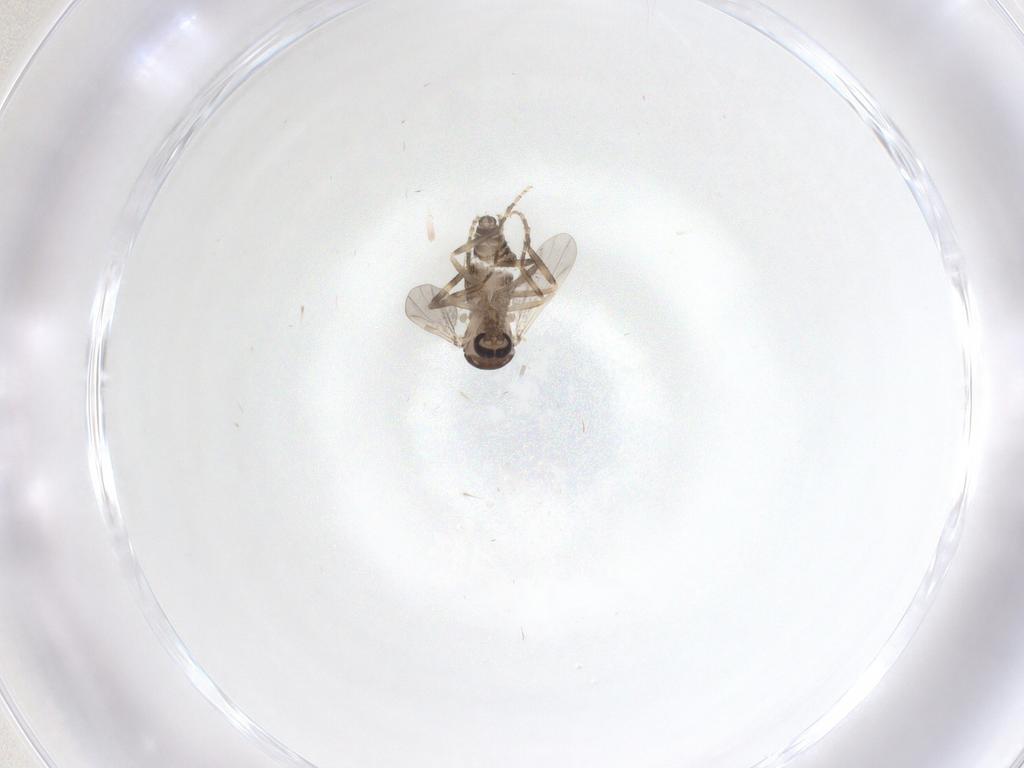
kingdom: Animalia
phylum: Arthropoda
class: Insecta
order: Diptera
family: Ceratopogonidae
